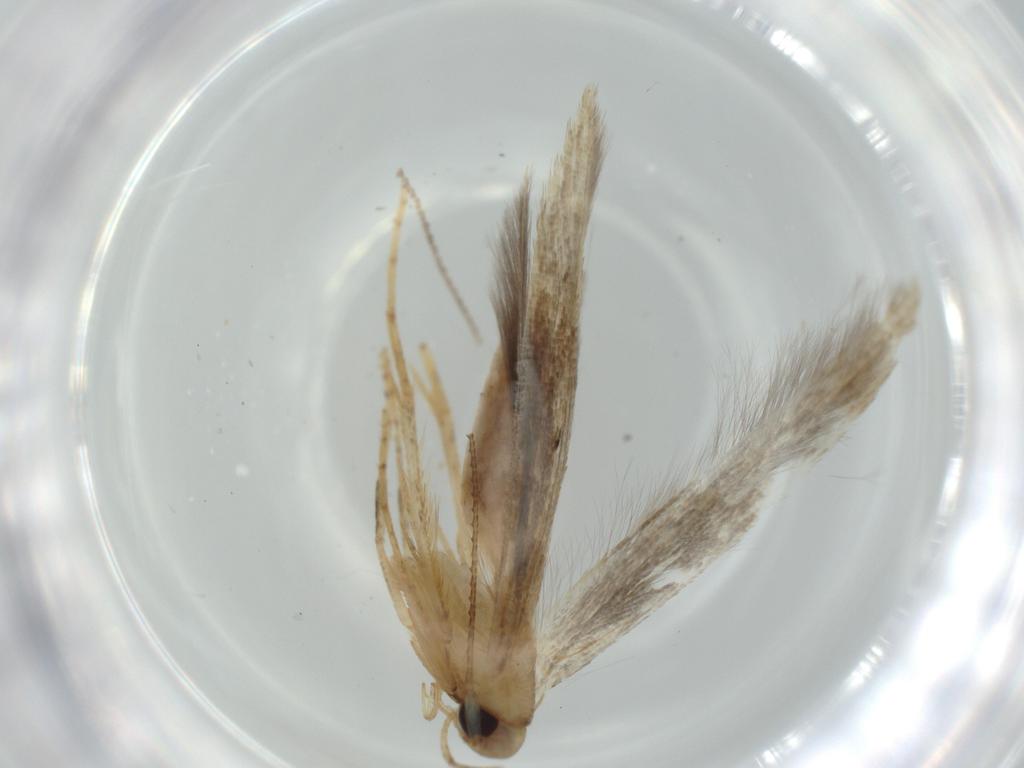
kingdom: Animalia
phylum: Arthropoda
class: Insecta
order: Lepidoptera
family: Heliodinidae
